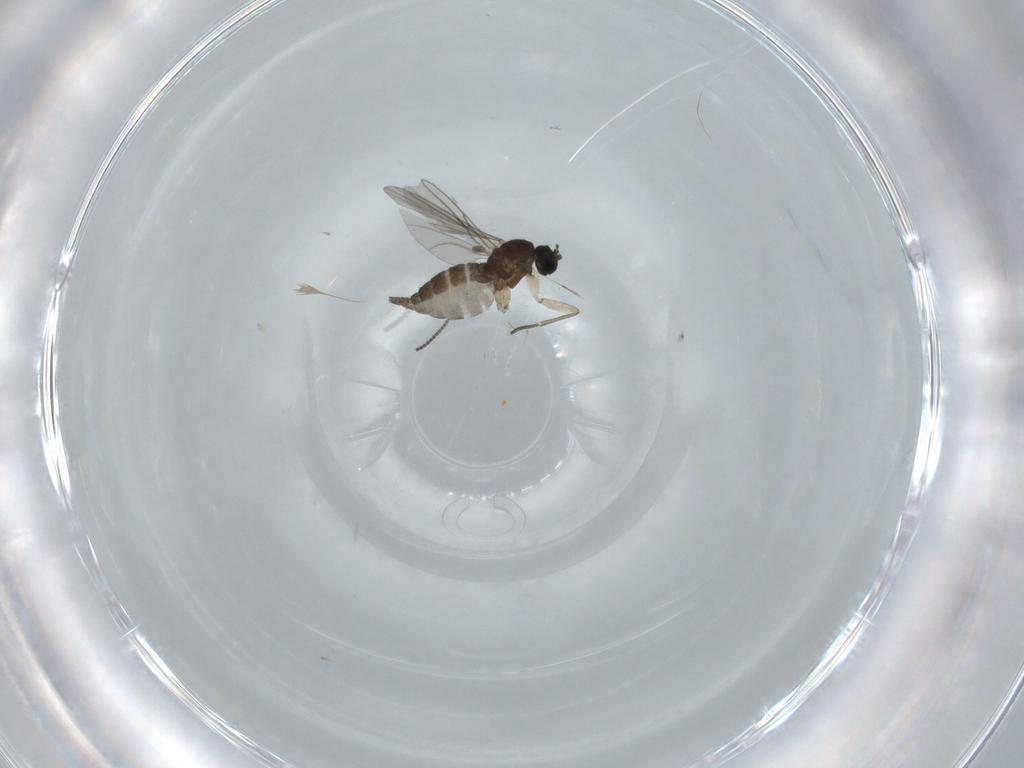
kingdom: Animalia
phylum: Arthropoda
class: Insecta
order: Diptera
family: Sciaridae
